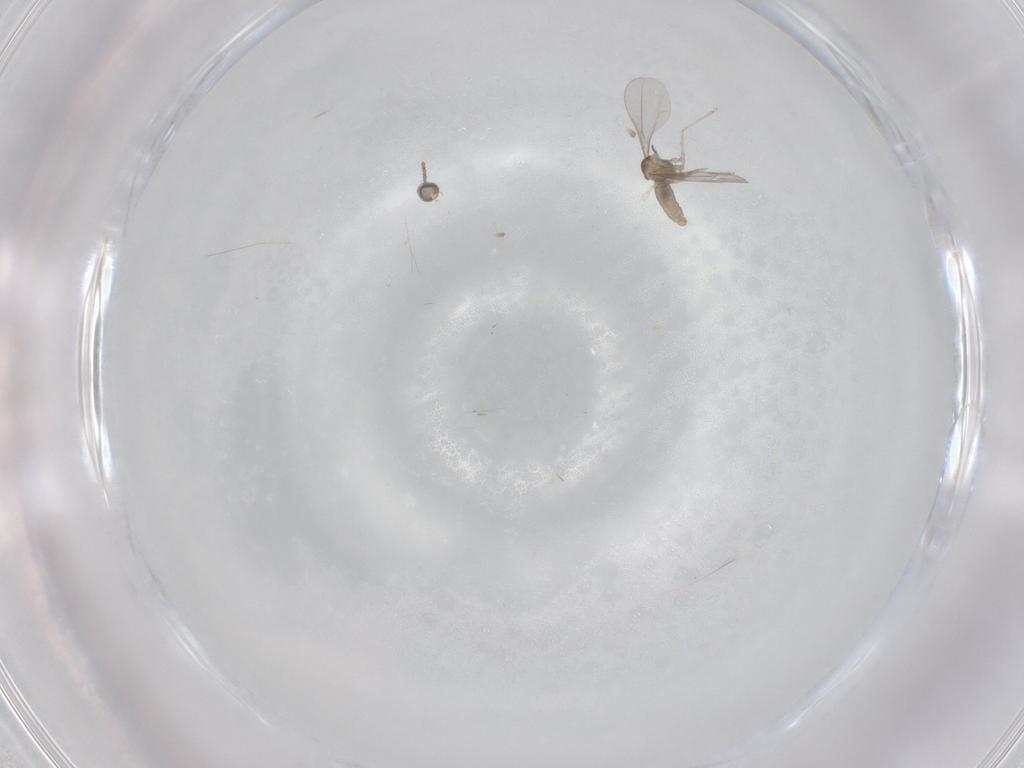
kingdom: Animalia
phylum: Arthropoda
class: Insecta
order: Diptera
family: Cecidomyiidae
